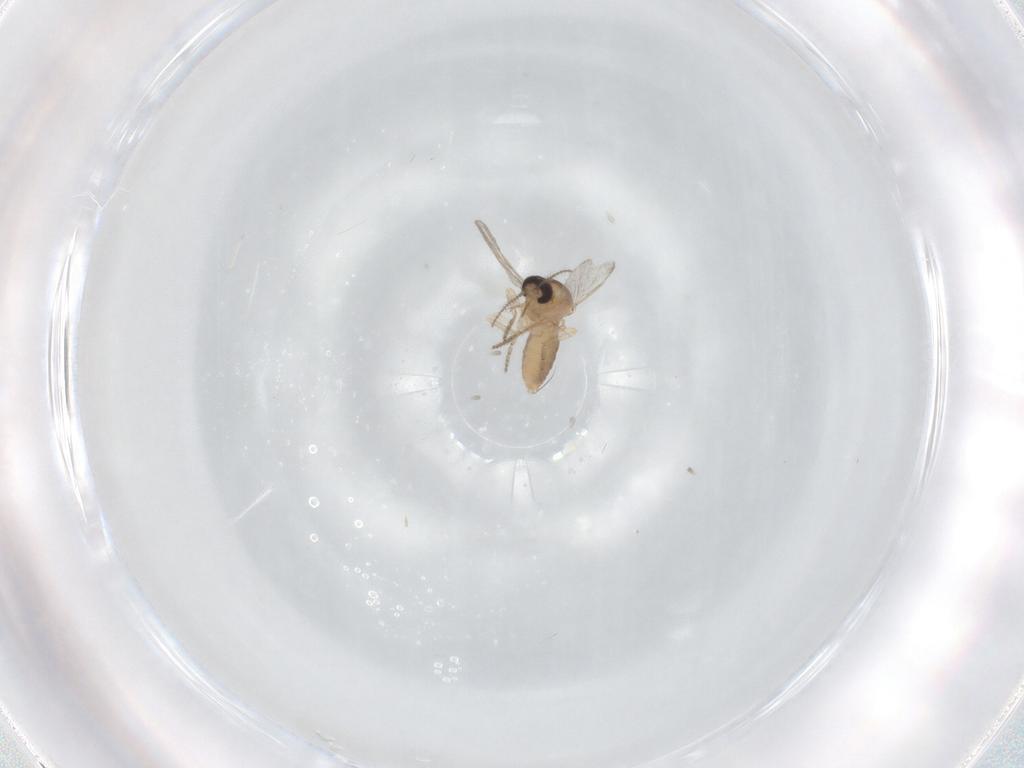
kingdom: Animalia
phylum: Arthropoda
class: Insecta
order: Diptera
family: Ceratopogonidae
